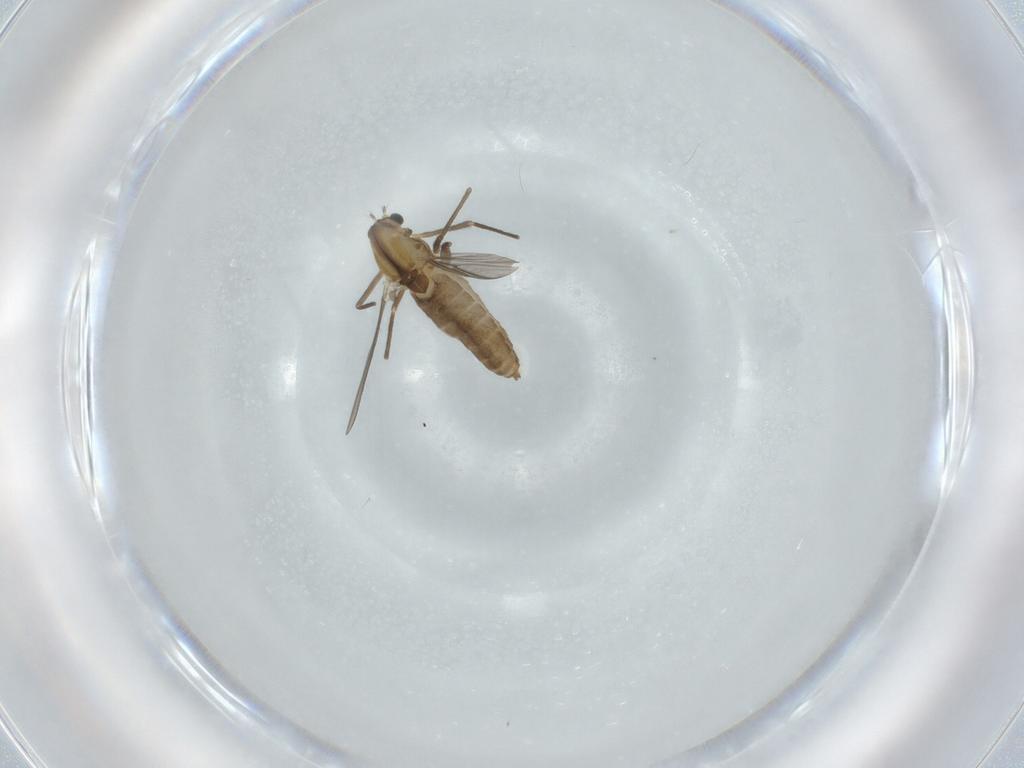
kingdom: Animalia
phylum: Arthropoda
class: Insecta
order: Diptera
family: Chironomidae
